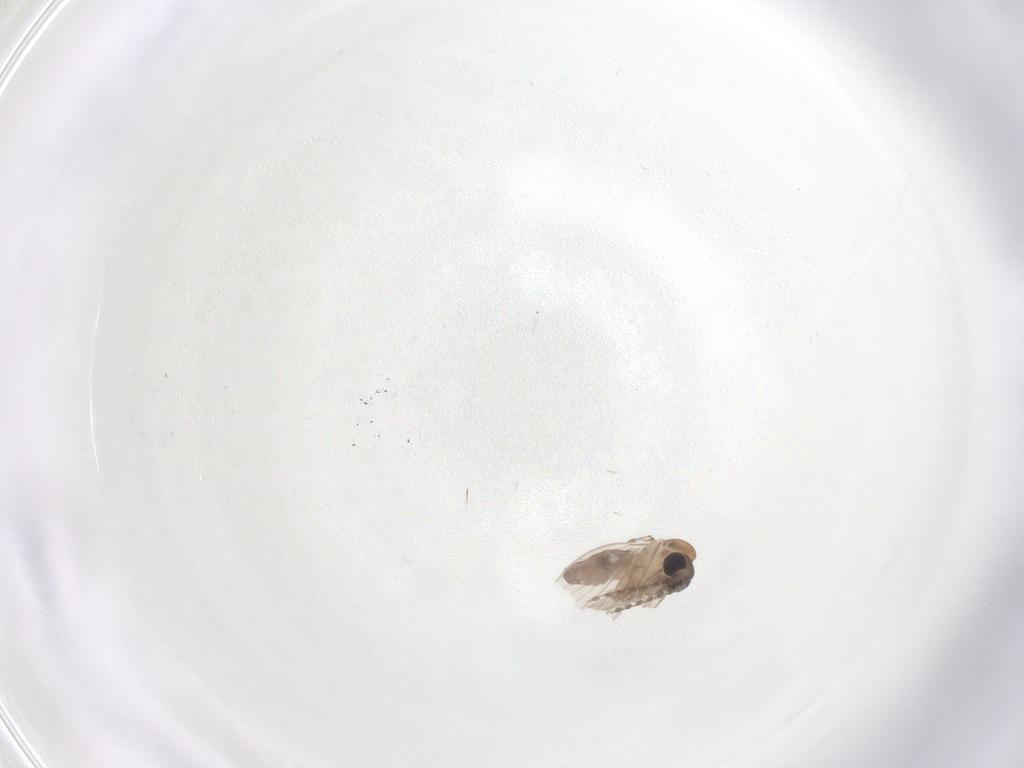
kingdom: Animalia
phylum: Arthropoda
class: Insecta
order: Diptera
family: Psychodidae
